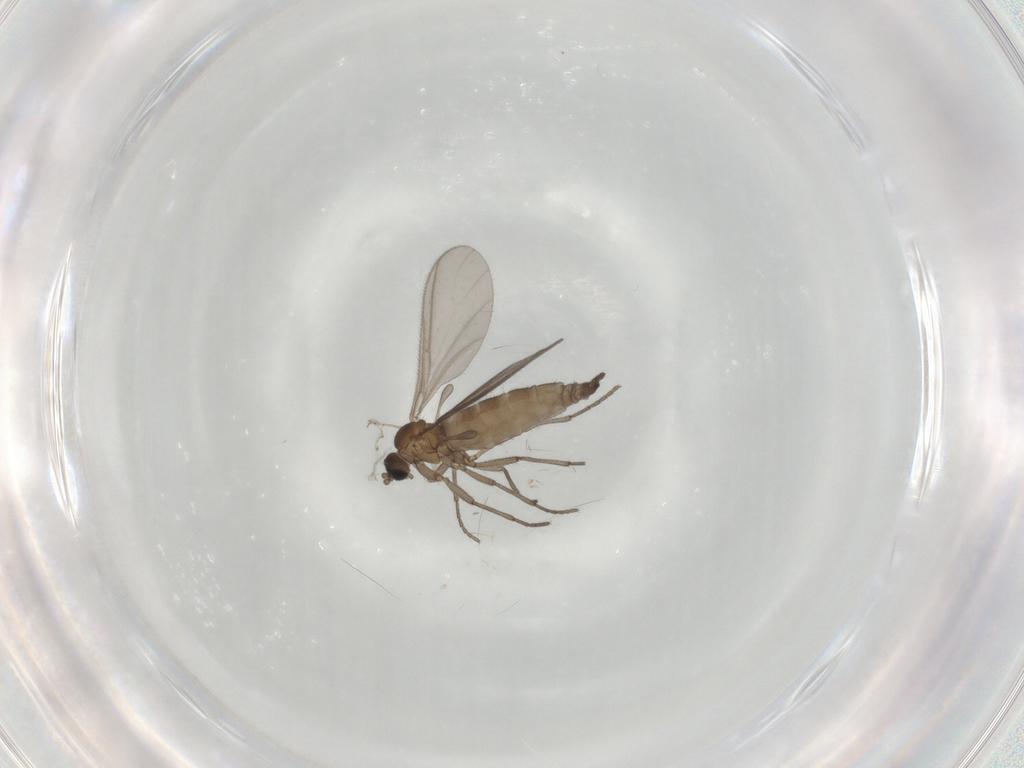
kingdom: Animalia
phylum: Arthropoda
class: Insecta
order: Diptera
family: Sciaridae
